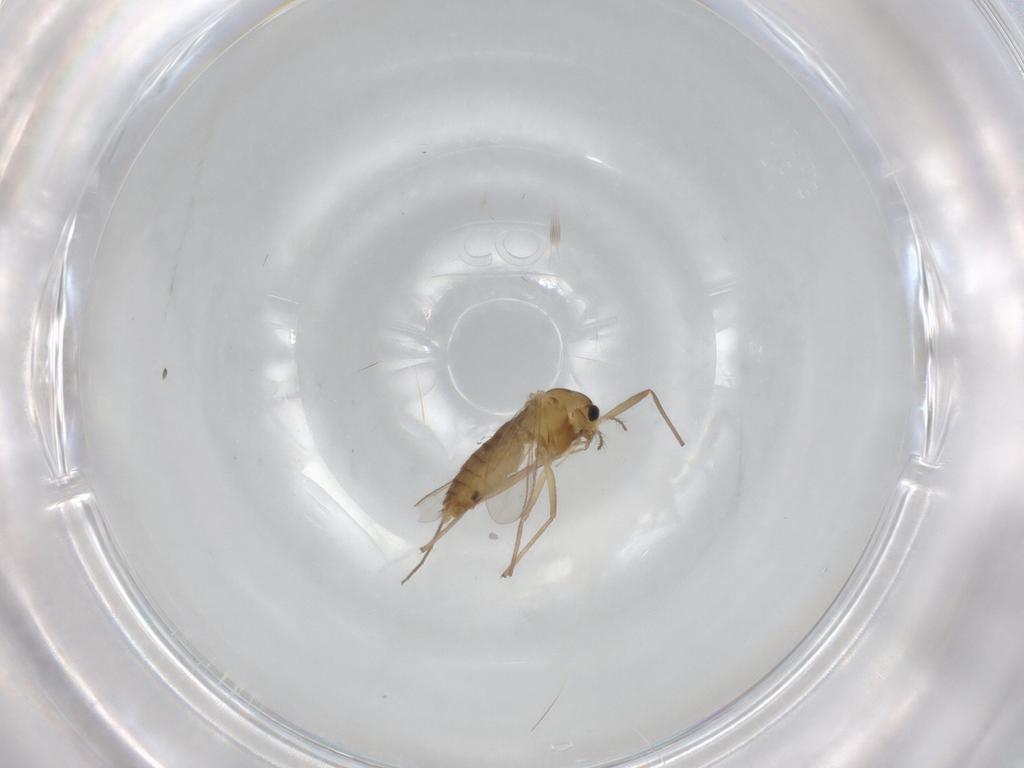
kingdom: Animalia
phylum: Arthropoda
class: Insecta
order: Diptera
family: Chironomidae
